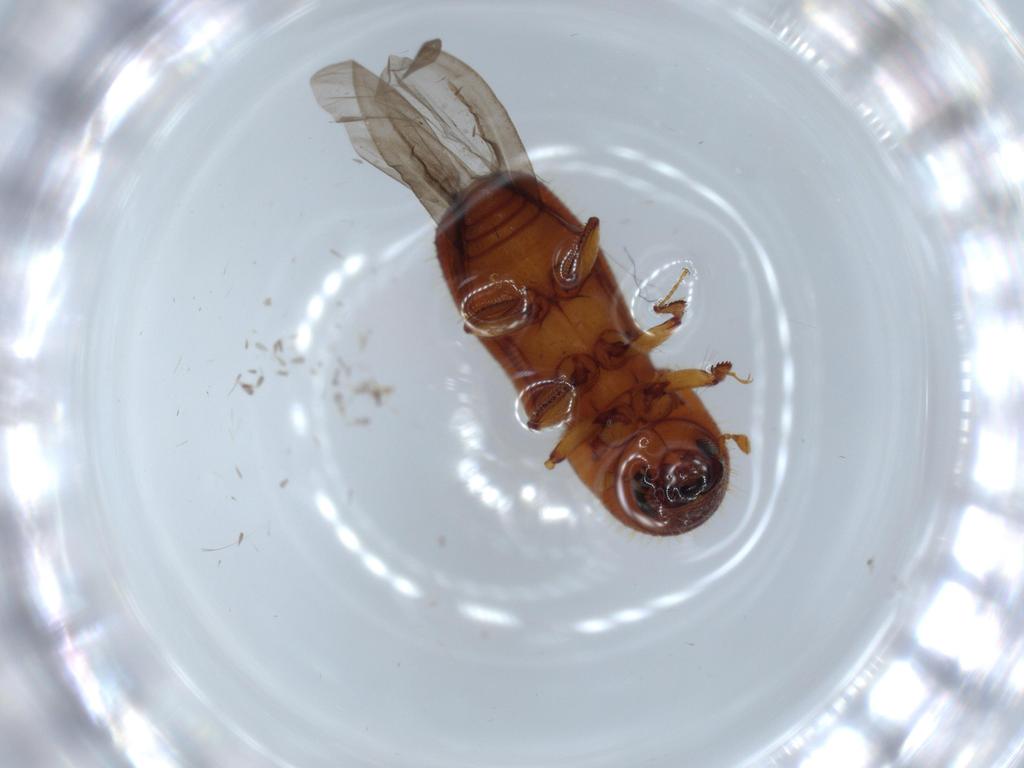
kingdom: Animalia
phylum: Arthropoda
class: Insecta
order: Coleoptera
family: Curculionidae
